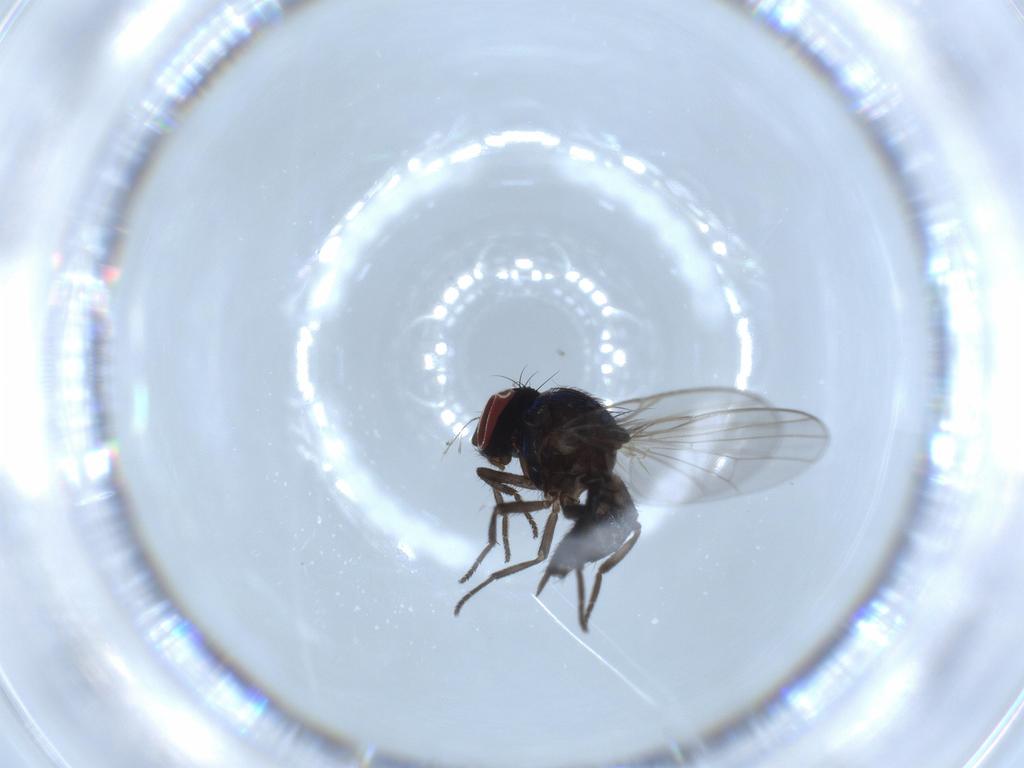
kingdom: Animalia
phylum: Arthropoda
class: Insecta
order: Diptera
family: Lonchaeidae
